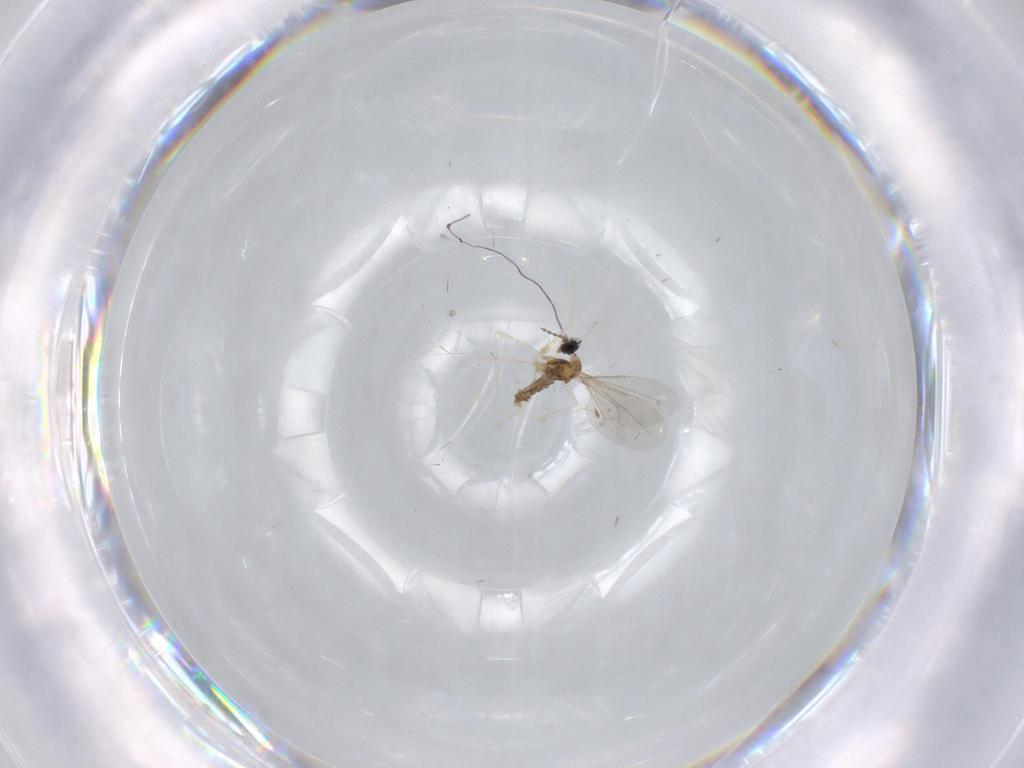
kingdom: Animalia
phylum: Arthropoda
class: Insecta
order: Diptera
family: Cecidomyiidae
